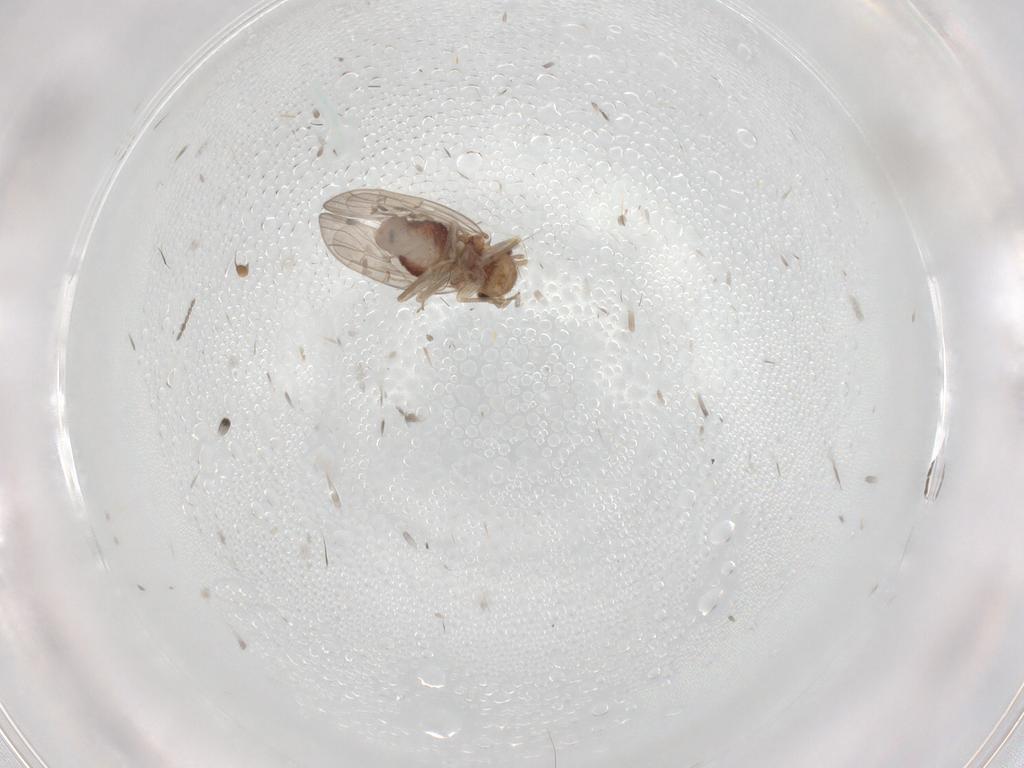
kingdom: Animalia
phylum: Arthropoda
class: Insecta
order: Psocodea
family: Ectopsocidae
